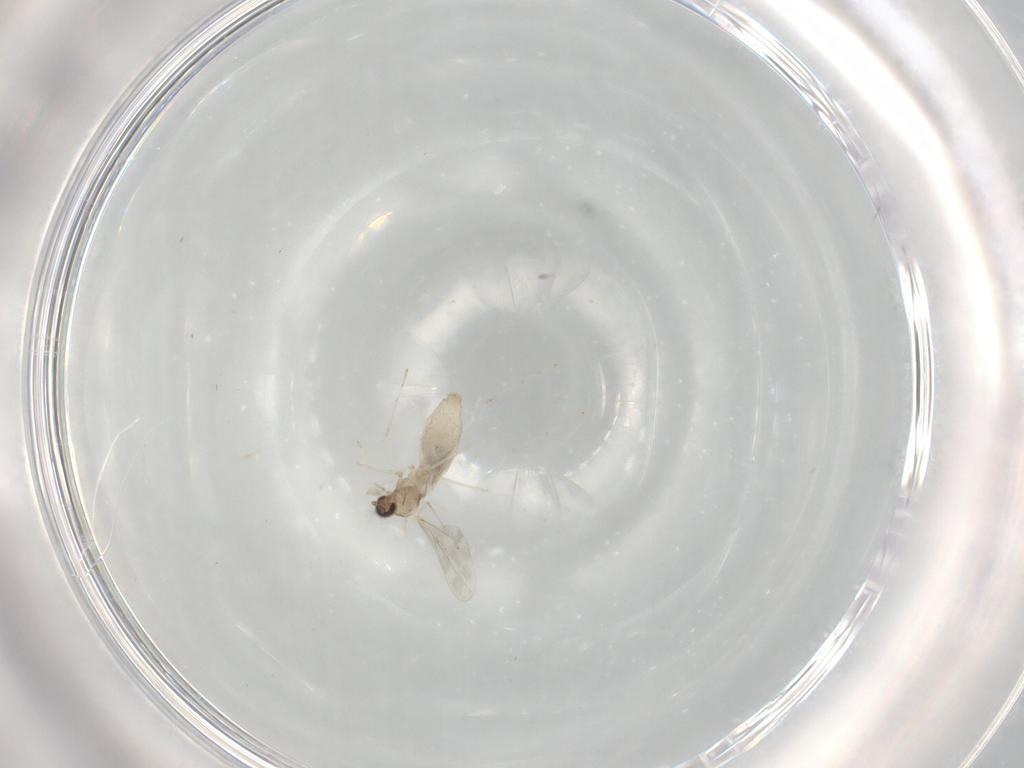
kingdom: Animalia
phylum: Arthropoda
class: Insecta
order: Diptera
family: Cecidomyiidae
